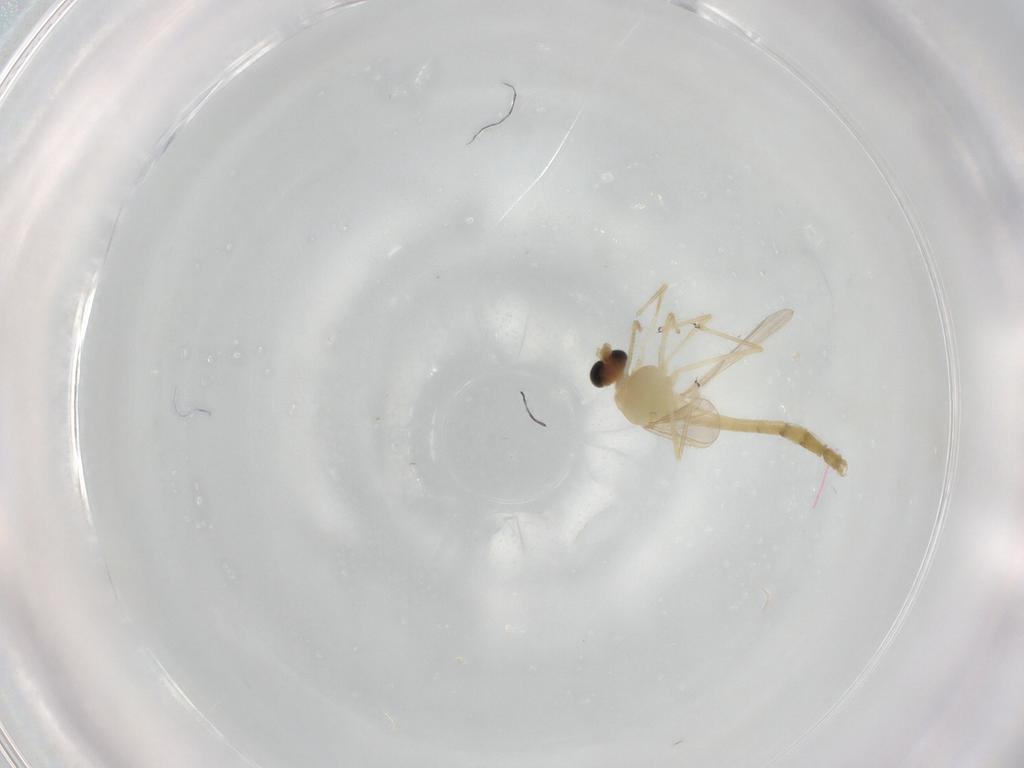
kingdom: Animalia
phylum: Arthropoda
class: Insecta
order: Diptera
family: Chironomidae
